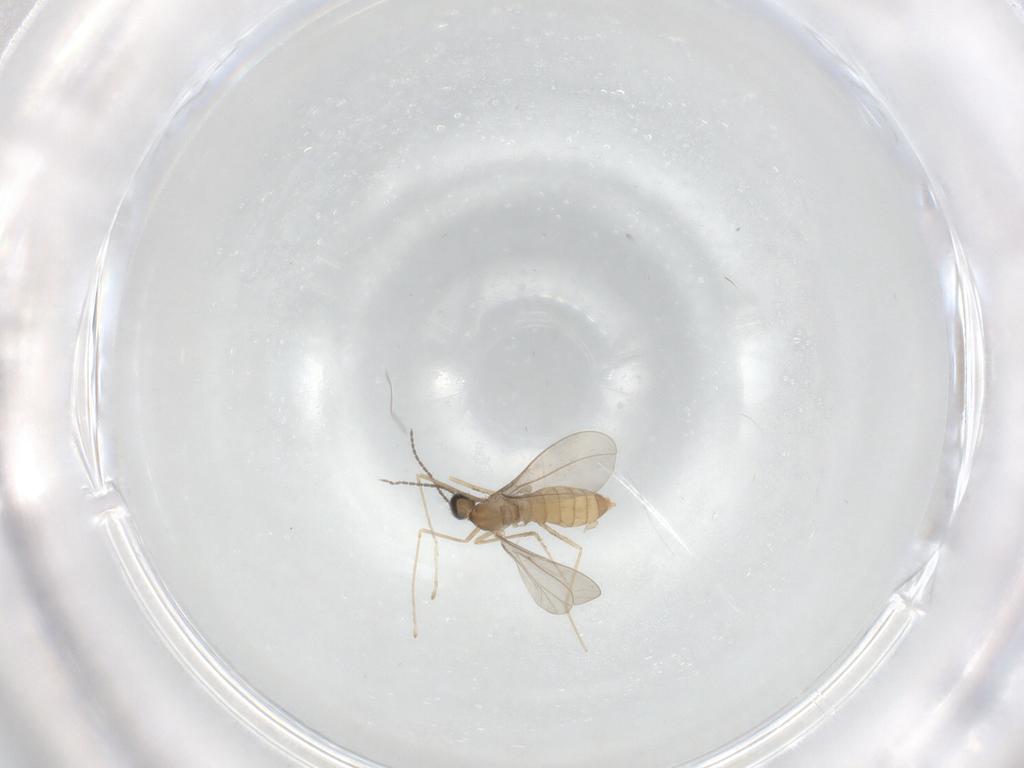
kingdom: Animalia
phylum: Arthropoda
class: Insecta
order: Diptera
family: Cecidomyiidae
